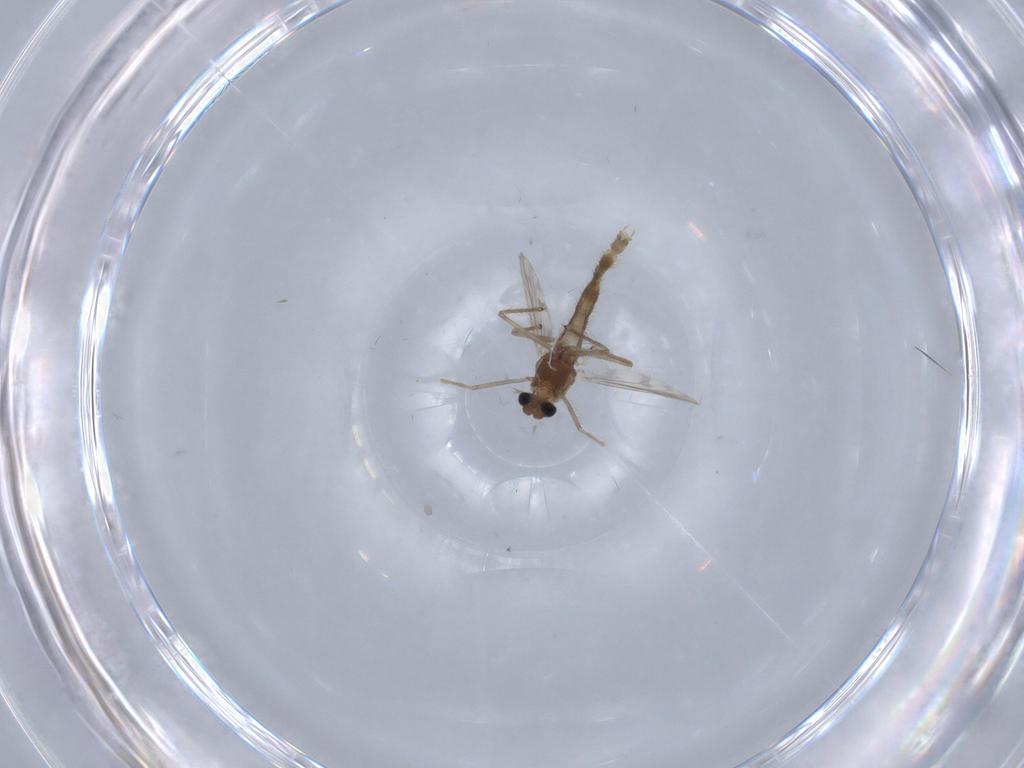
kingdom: Animalia
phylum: Arthropoda
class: Insecta
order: Diptera
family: Chironomidae
